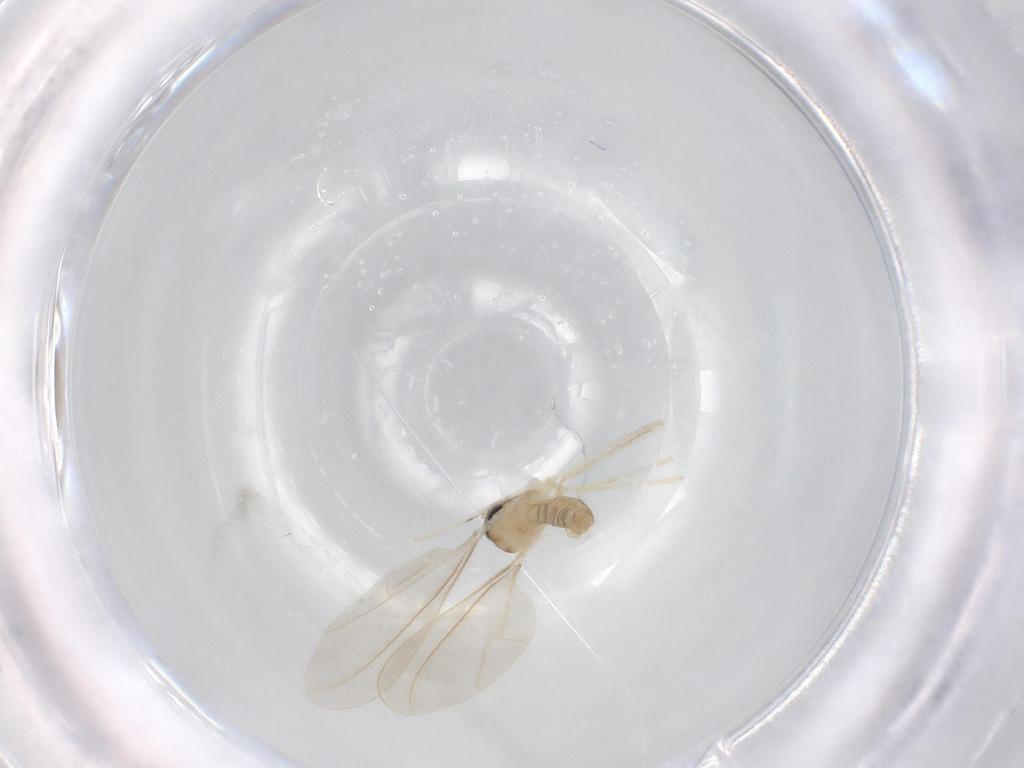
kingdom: Animalia
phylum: Arthropoda
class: Insecta
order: Diptera
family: Cecidomyiidae
